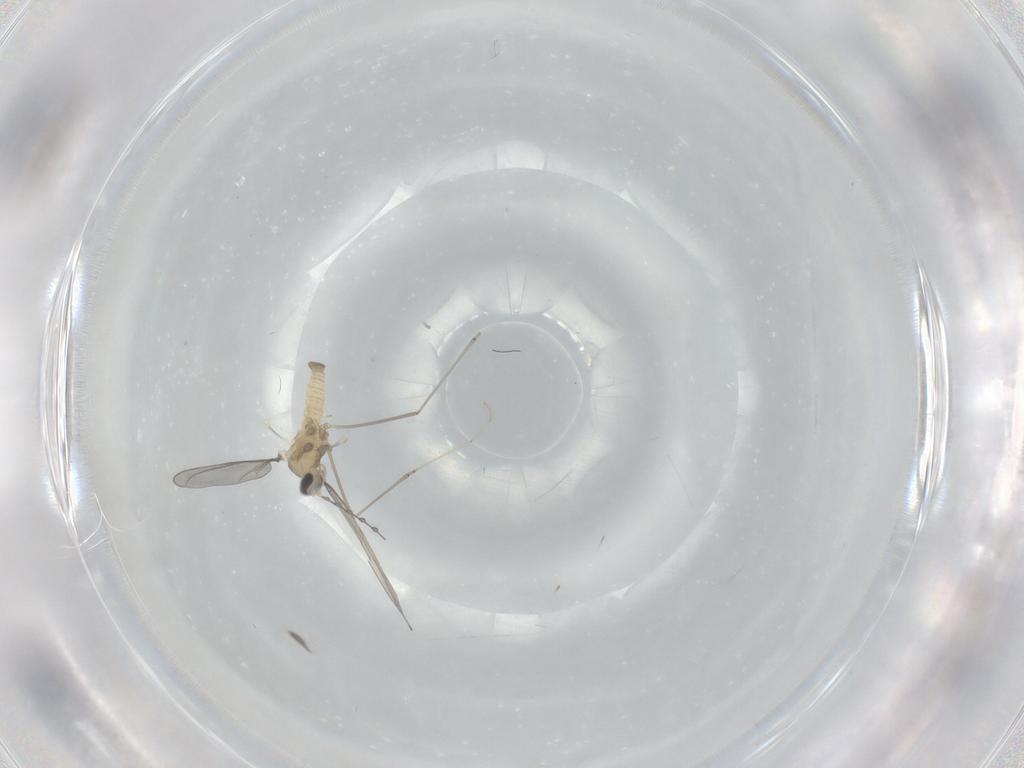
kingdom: Animalia
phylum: Arthropoda
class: Insecta
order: Diptera
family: Cecidomyiidae
